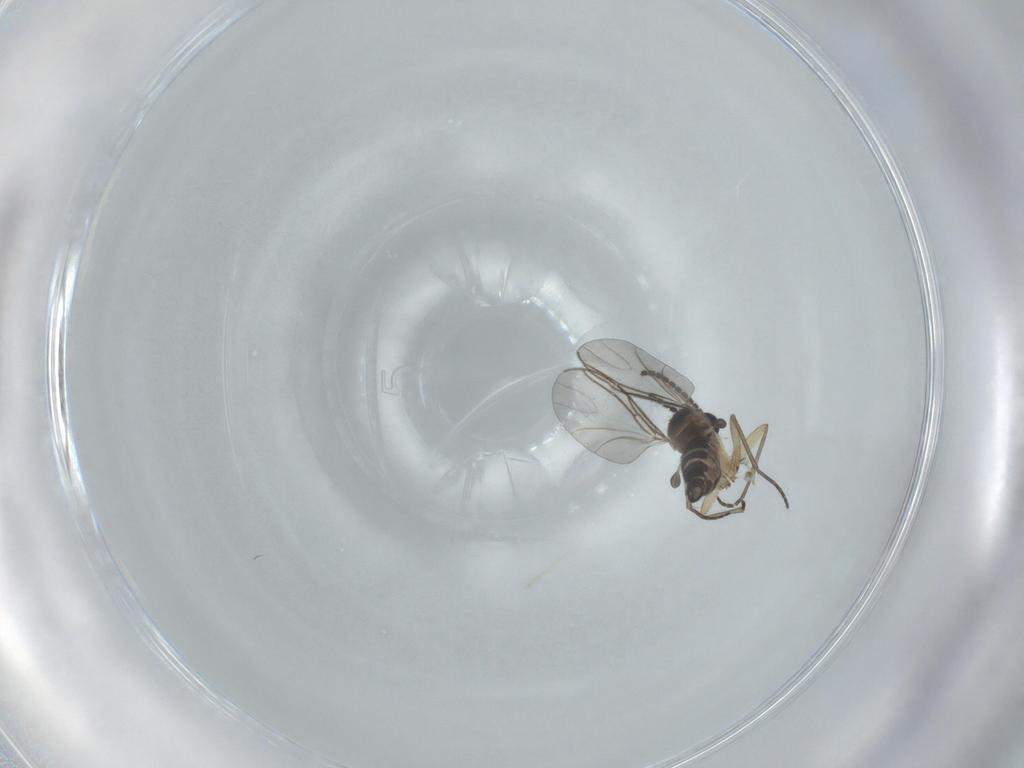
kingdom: Animalia
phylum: Arthropoda
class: Insecta
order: Diptera
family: Sciaridae
